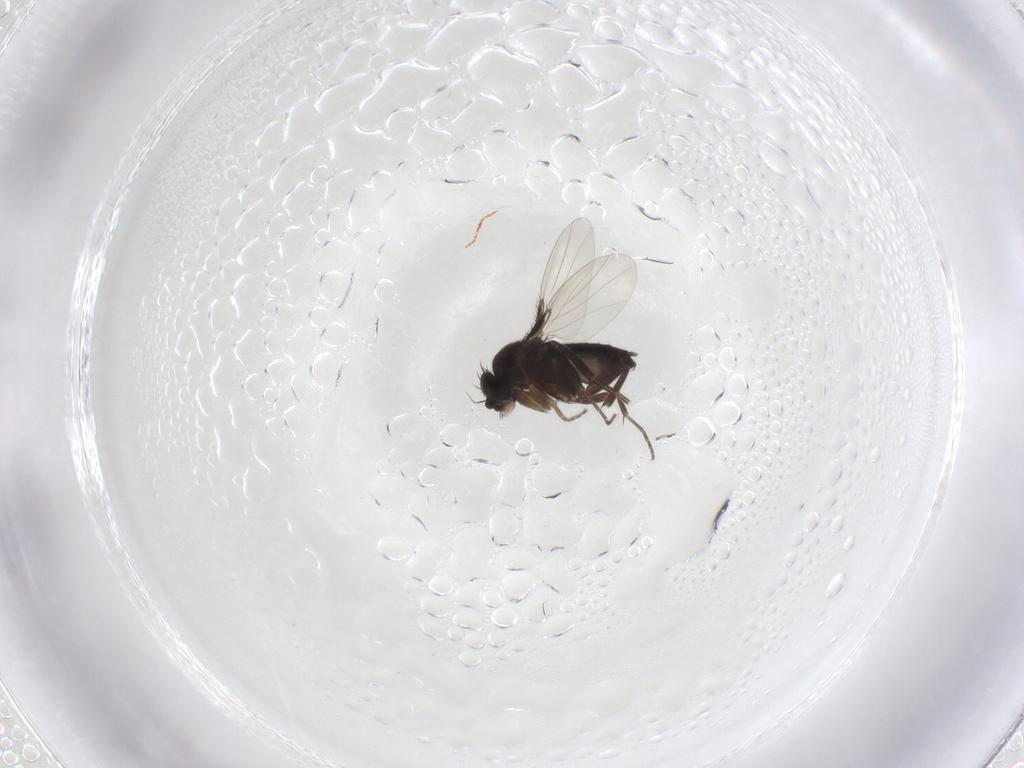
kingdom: Animalia
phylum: Arthropoda
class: Insecta
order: Diptera
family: Phoridae
